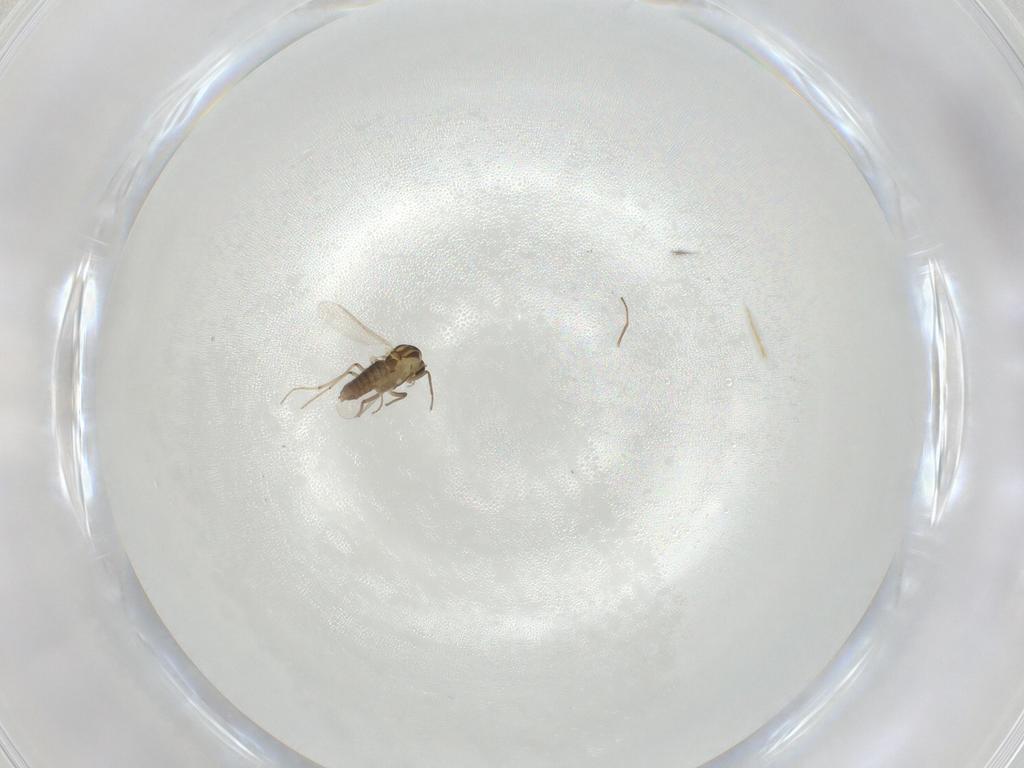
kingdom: Animalia
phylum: Arthropoda
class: Insecta
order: Diptera
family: Chironomidae
